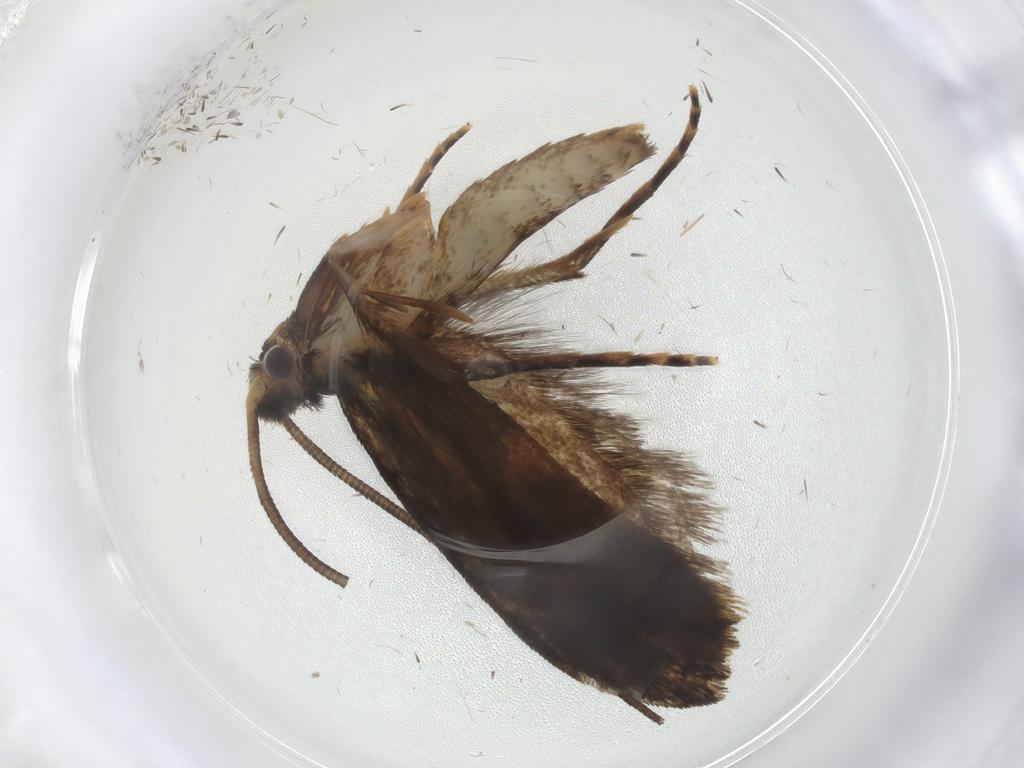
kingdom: Animalia
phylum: Arthropoda
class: Insecta
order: Lepidoptera
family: Tineidae
